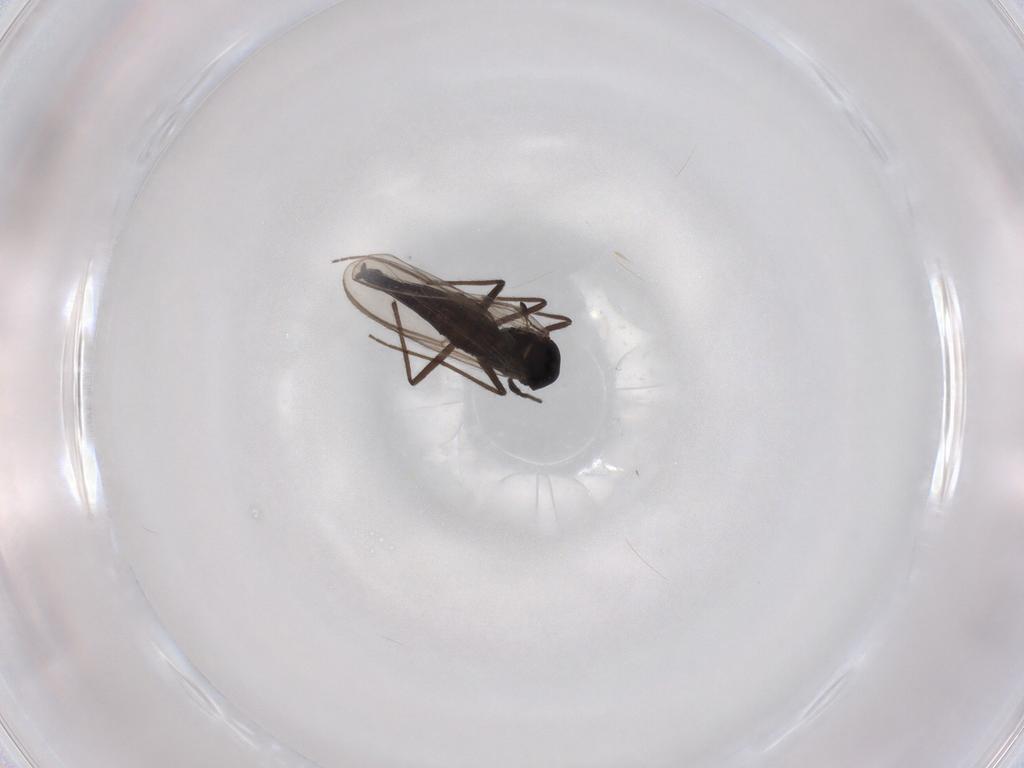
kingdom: Animalia
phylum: Arthropoda
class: Insecta
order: Diptera
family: Chironomidae
